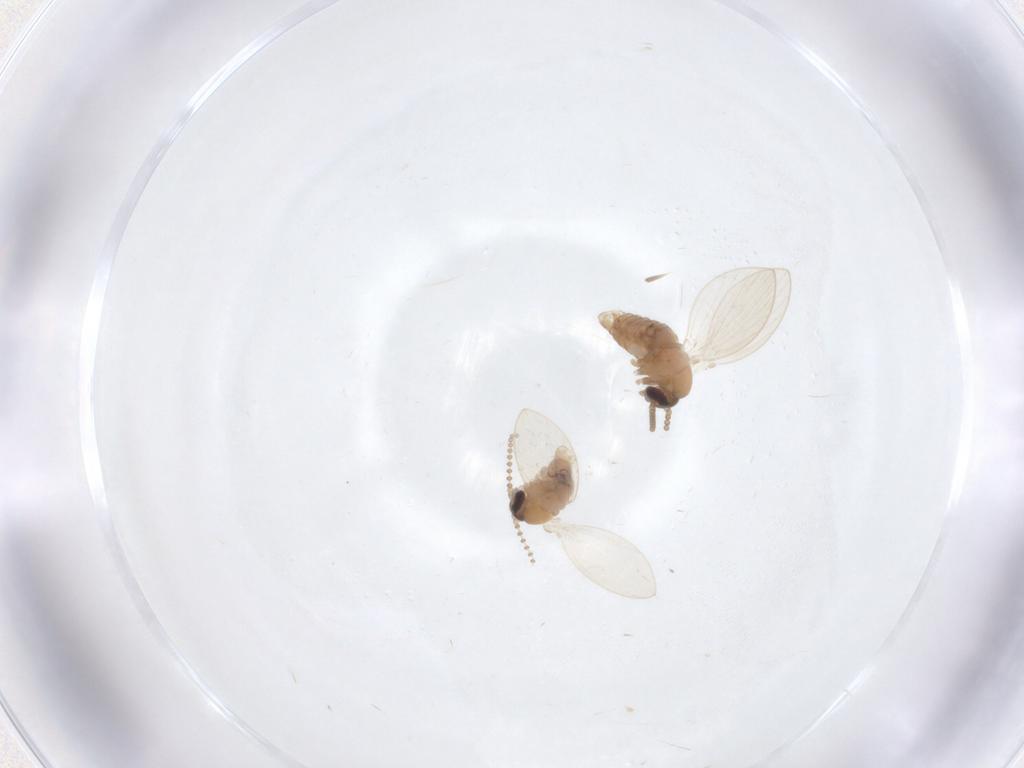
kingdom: Animalia
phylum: Arthropoda
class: Insecta
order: Diptera
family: Psychodidae
